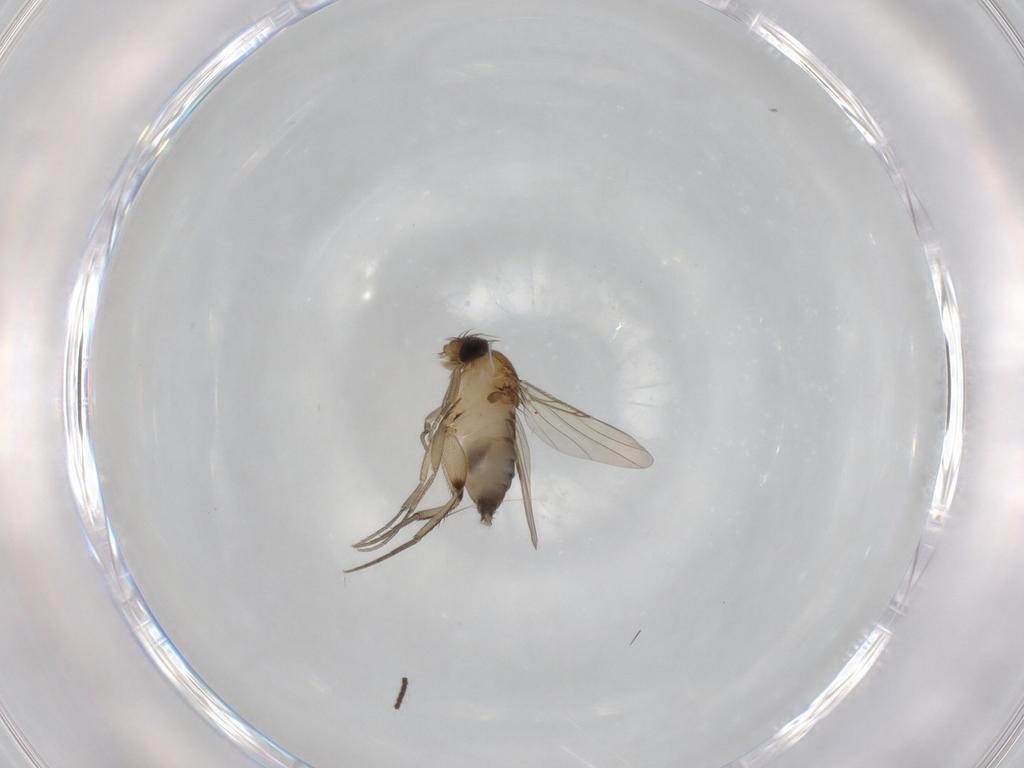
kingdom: Animalia
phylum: Arthropoda
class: Insecta
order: Diptera
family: Phoridae
